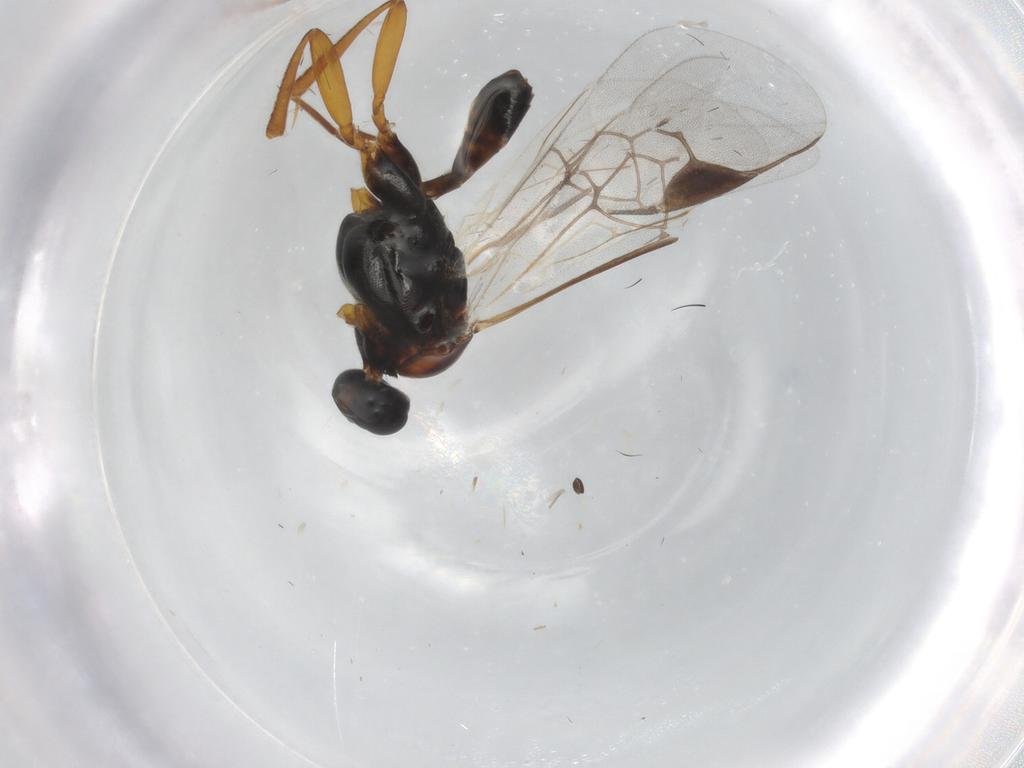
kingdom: Animalia
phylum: Arthropoda
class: Insecta
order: Hymenoptera
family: Braconidae
